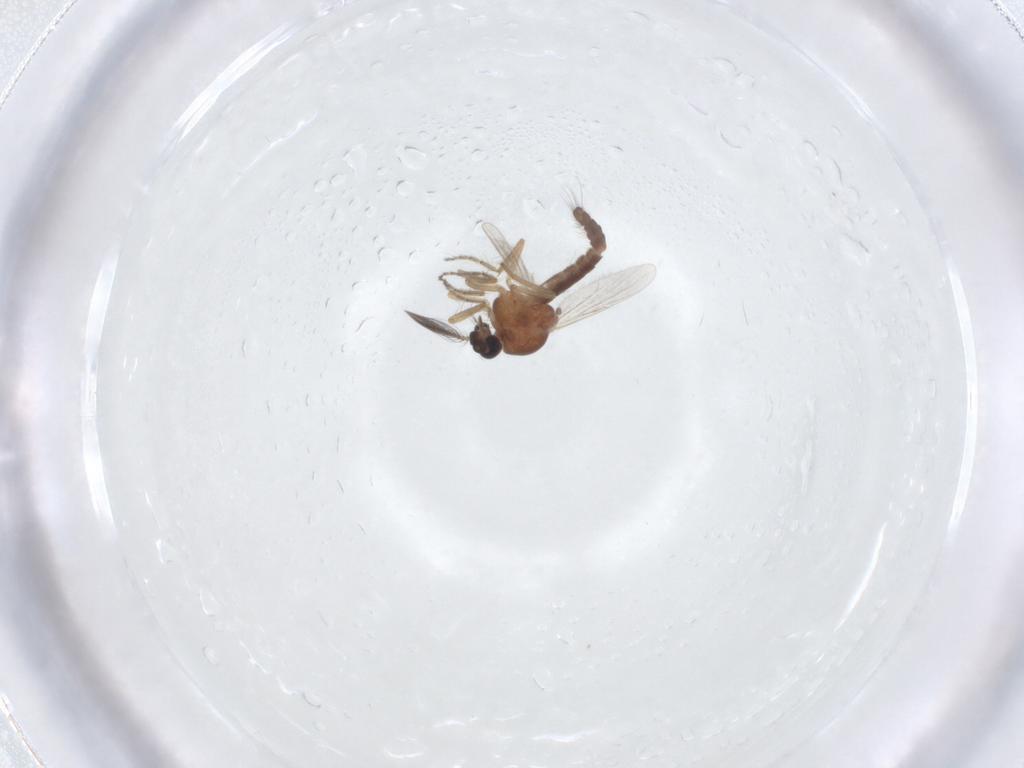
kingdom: Animalia
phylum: Arthropoda
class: Insecta
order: Diptera
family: Ceratopogonidae
